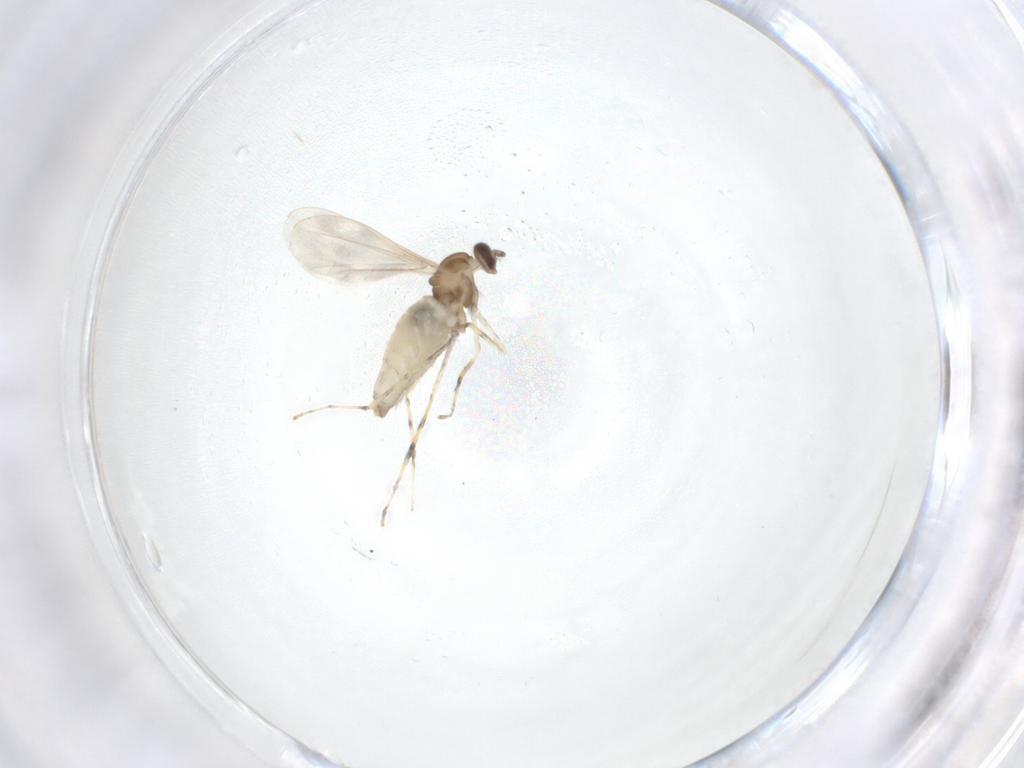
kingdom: Animalia
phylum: Arthropoda
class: Insecta
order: Diptera
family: Cecidomyiidae
